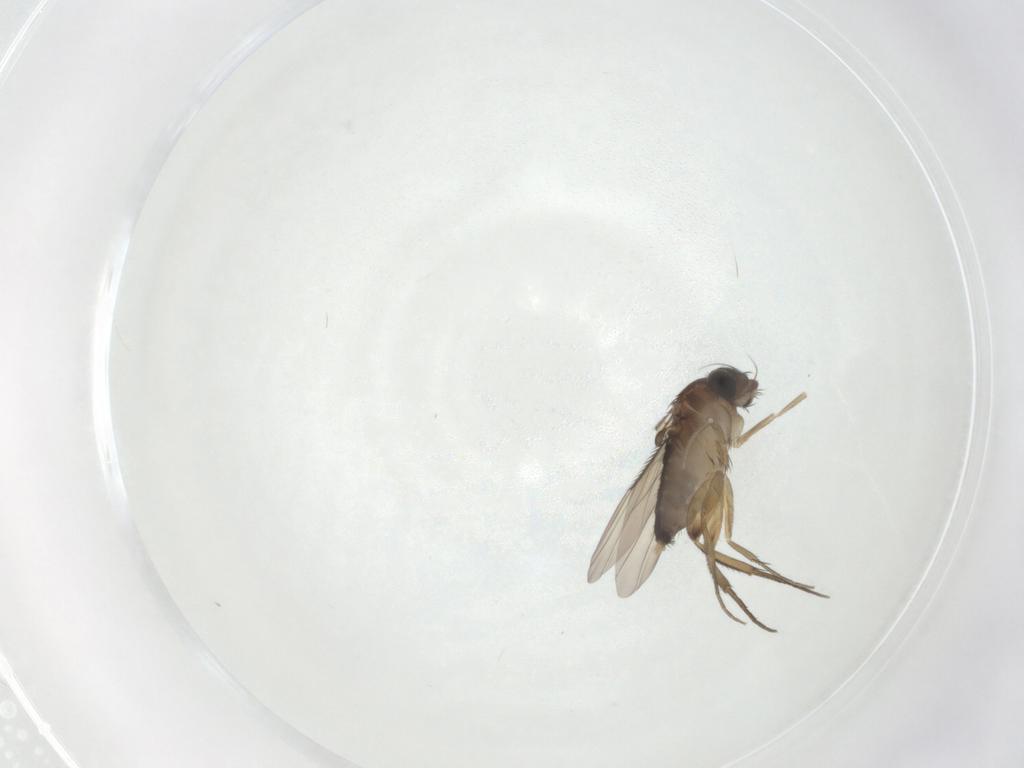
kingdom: Animalia
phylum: Arthropoda
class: Insecta
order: Diptera
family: Phoridae
